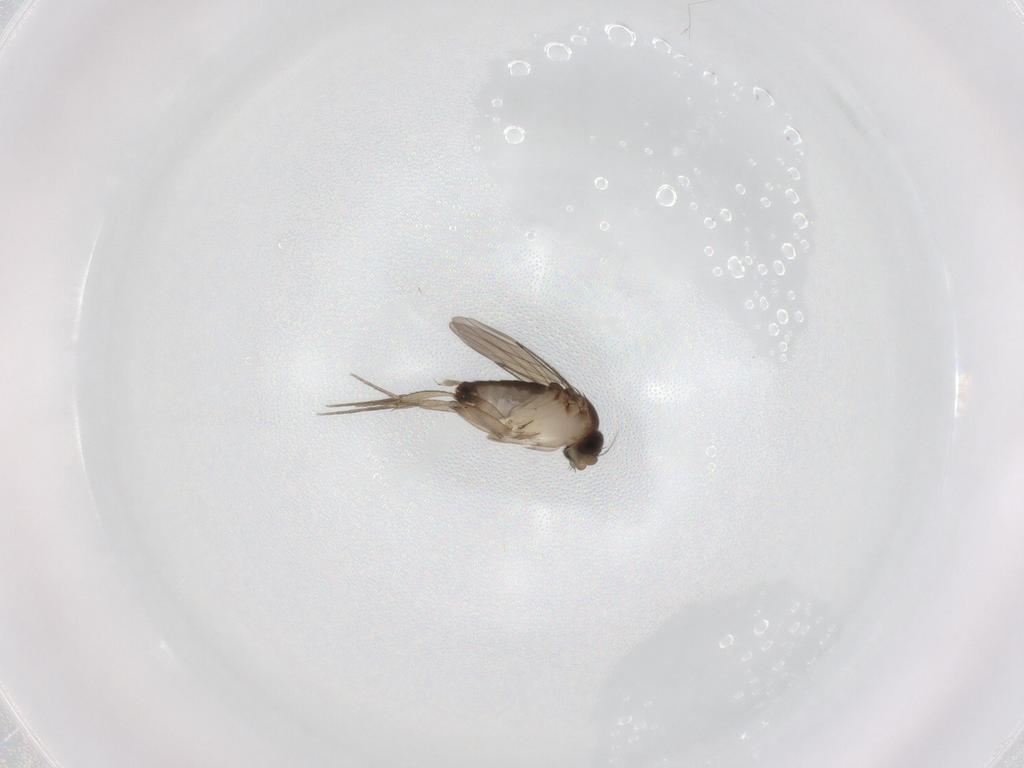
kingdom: Animalia
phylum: Arthropoda
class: Insecta
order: Diptera
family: Phoridae
